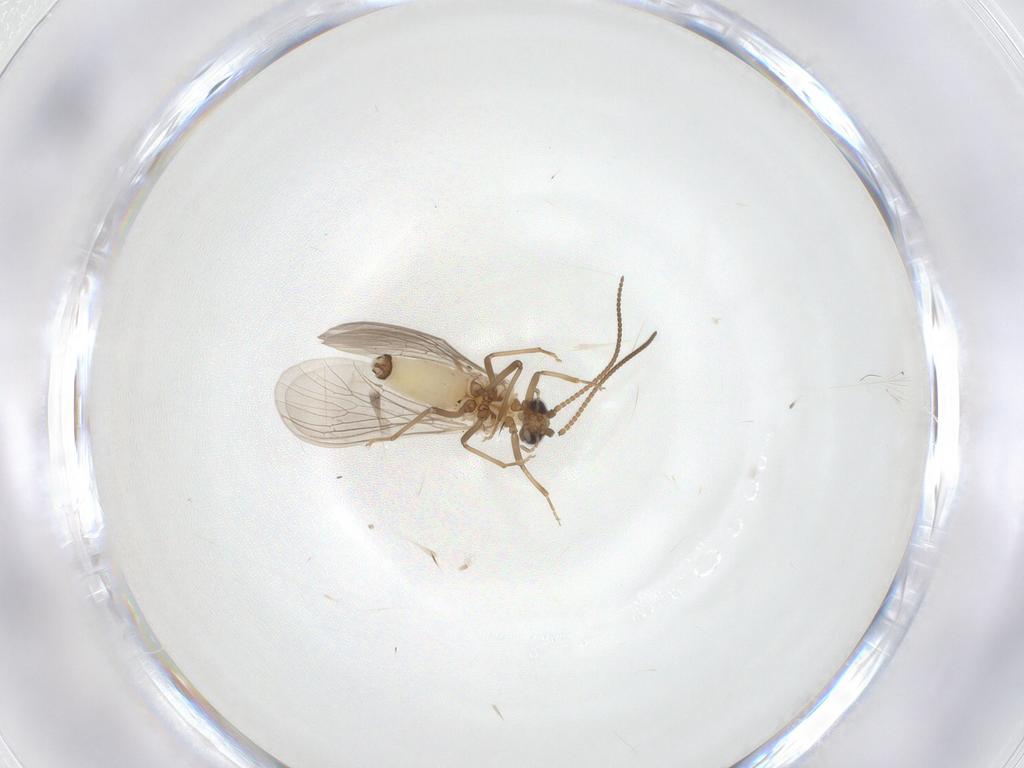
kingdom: Animalia
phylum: Arthropoda
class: Insecta
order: Neuroptera
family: Coniopterygidae
